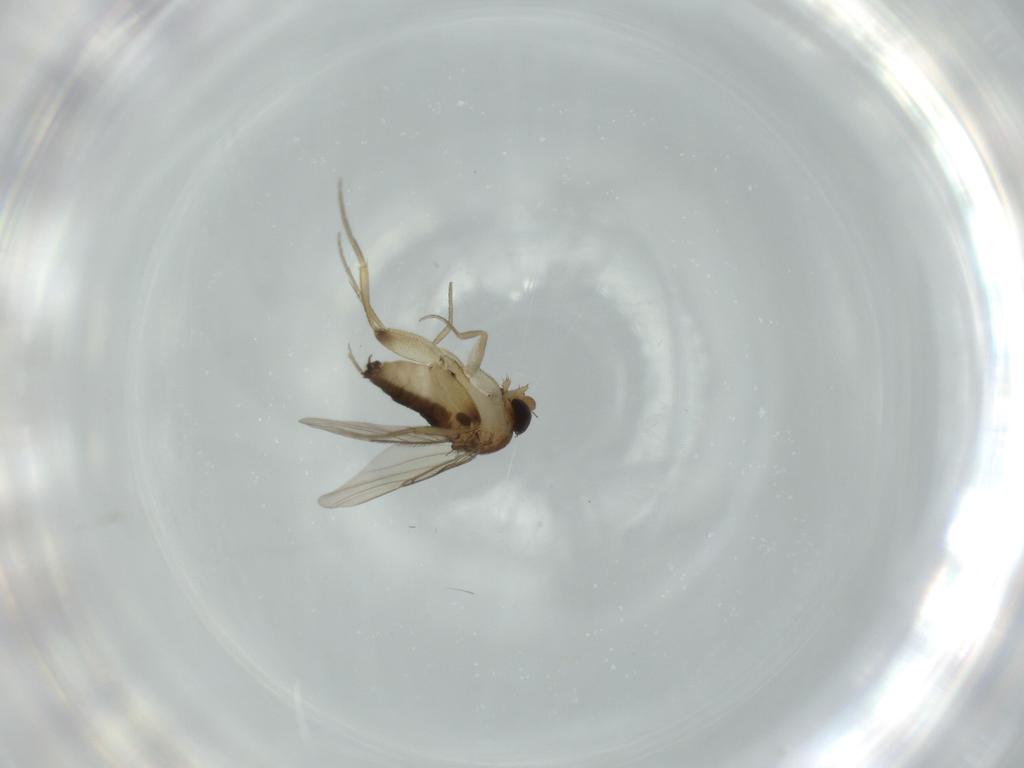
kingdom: Animalia
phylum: Arthropoda
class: Insecta
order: Diptera
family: Phoridae
